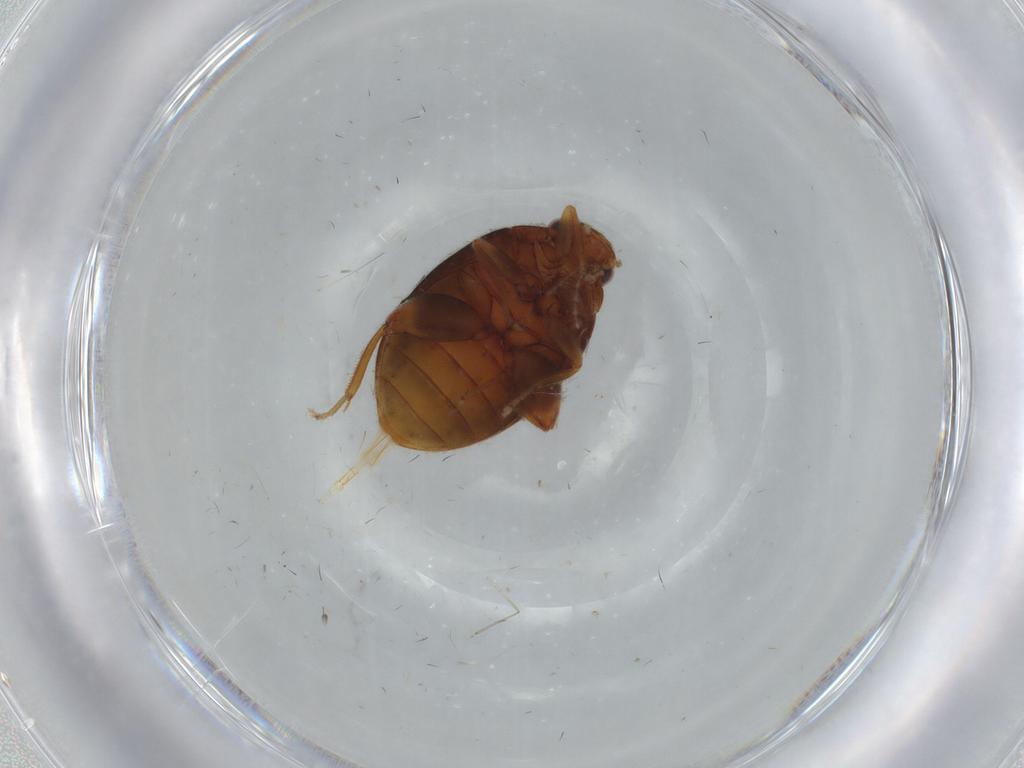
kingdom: Animalia
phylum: Arthropoda
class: Insecta
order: Coleoptera
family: Scirtidae
